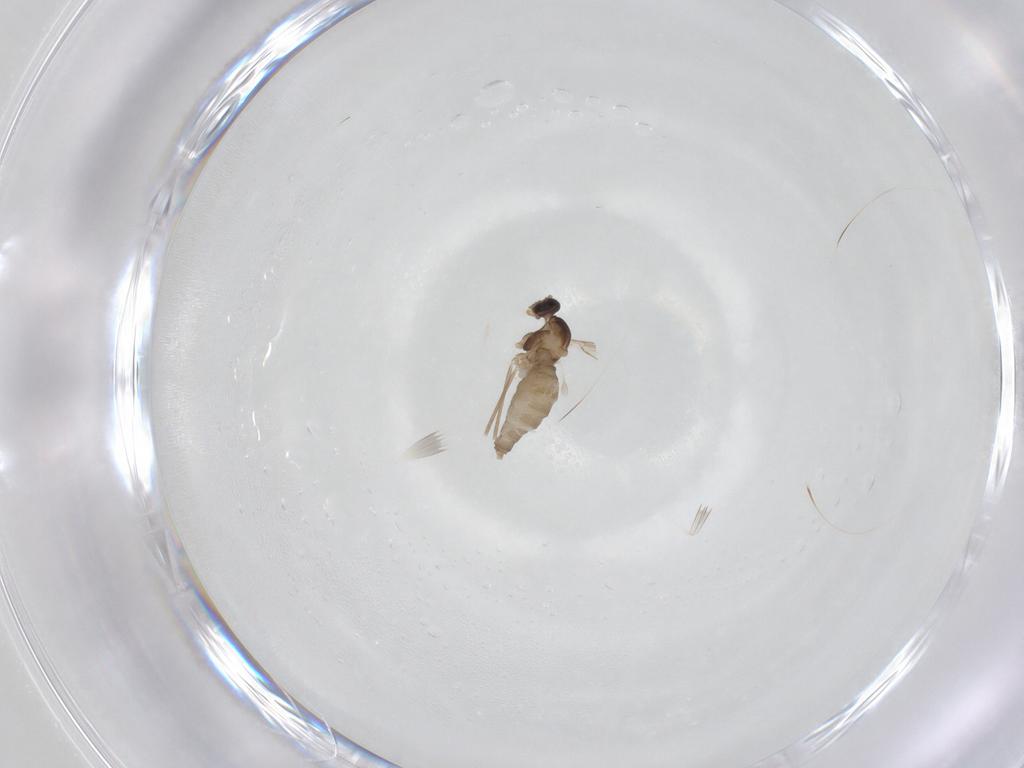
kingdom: Animalia
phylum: Arthropoda
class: Insecta
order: Diptera
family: Cecidomyiidae
